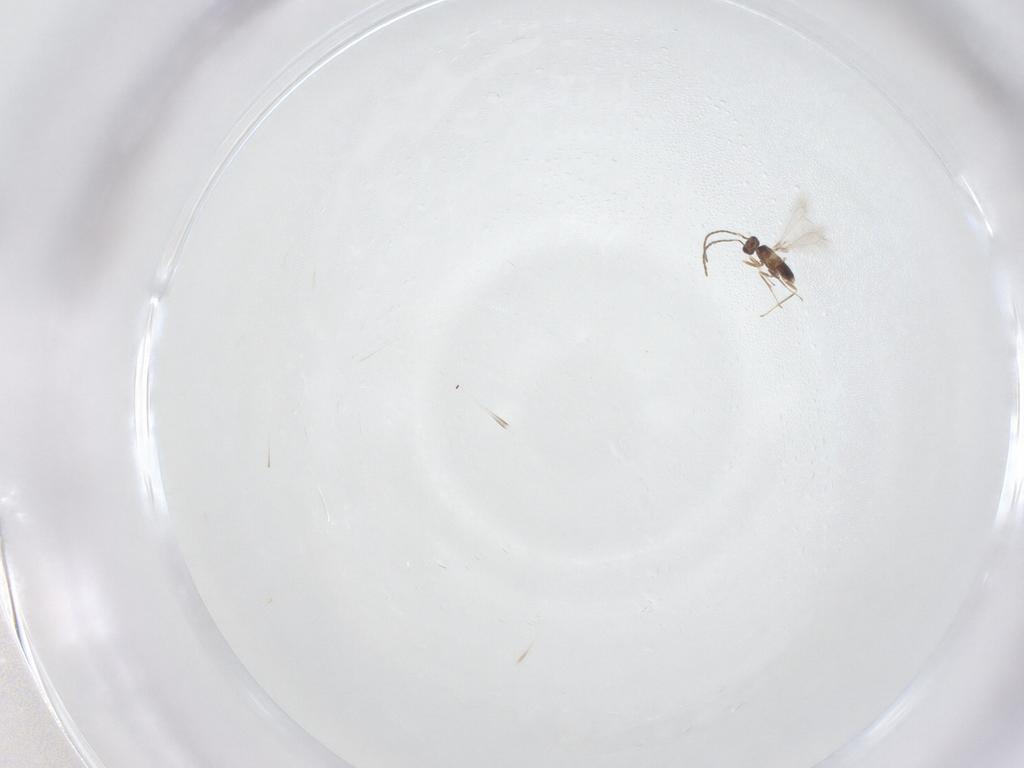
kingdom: Animalia
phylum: Arthropoda
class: Insecta
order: Hymenoptera
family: Mymaridae
